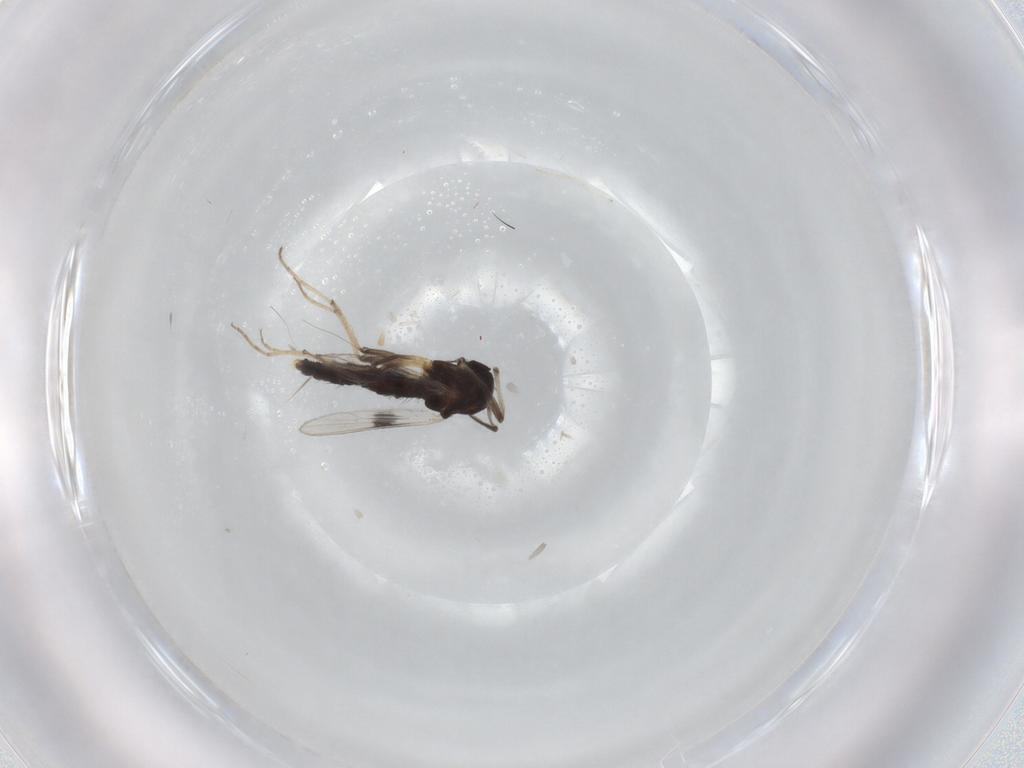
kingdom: Animalia
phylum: Arthropoda
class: Insecta
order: Diptera
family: Chironomidae
